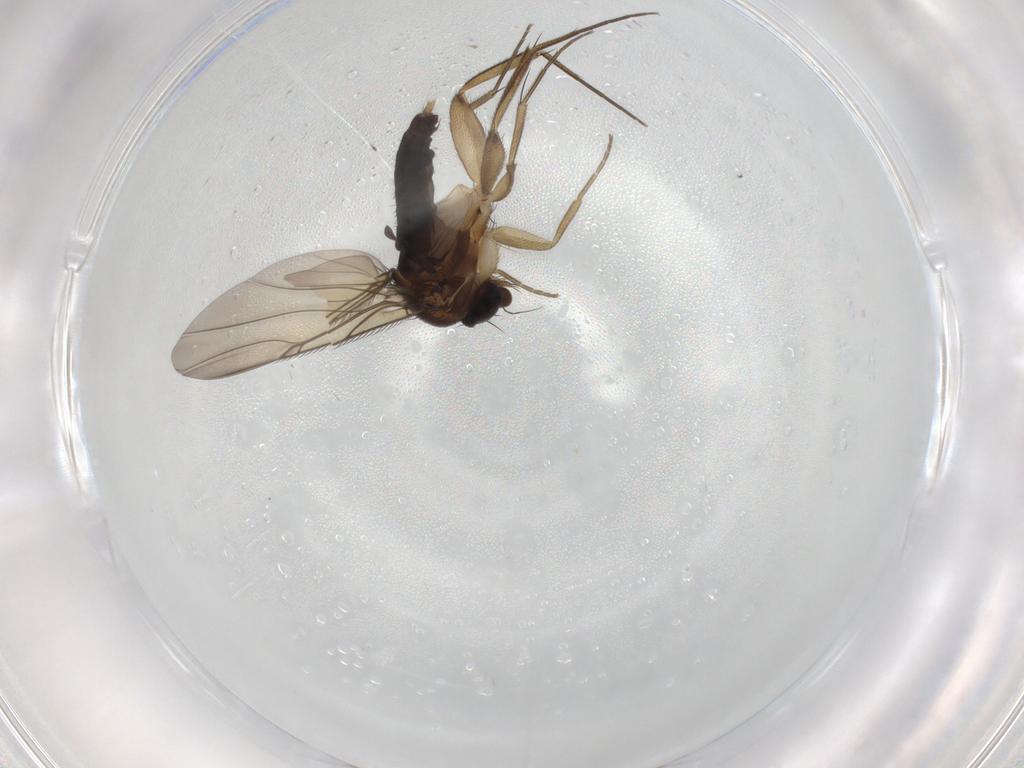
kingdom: Animalia
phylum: Arthropoda
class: Insecta
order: Diptera
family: Phoridae
